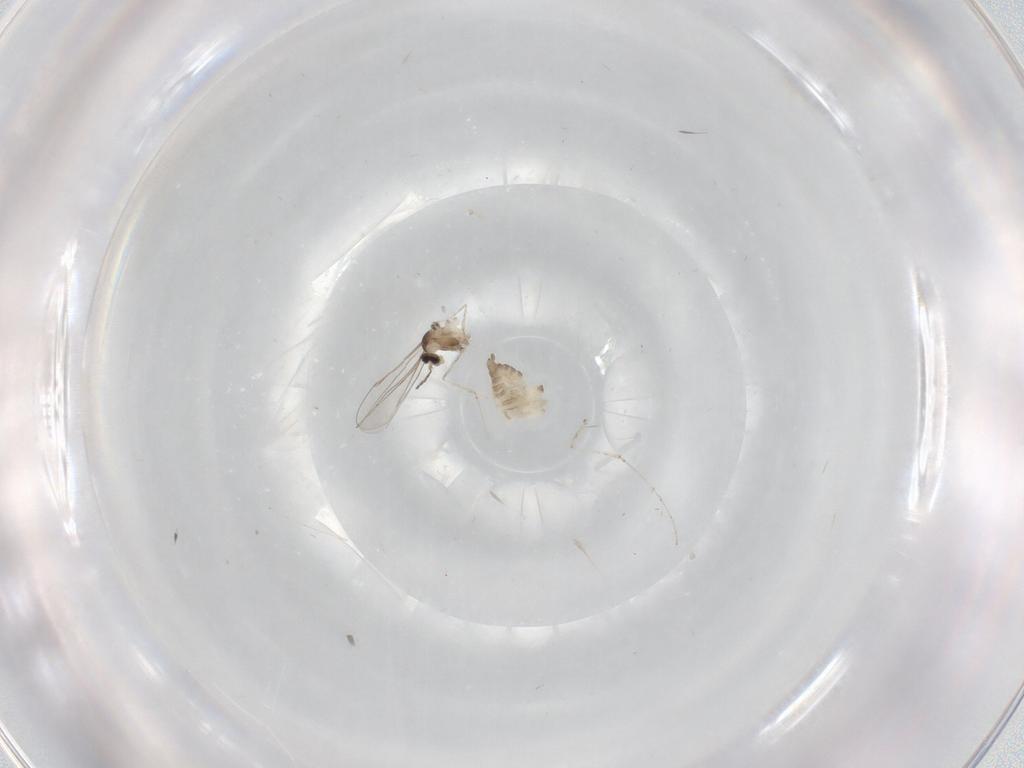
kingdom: Animalia
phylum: Arthropoda
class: Insecta
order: Diptera
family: Cecidomyiidae
